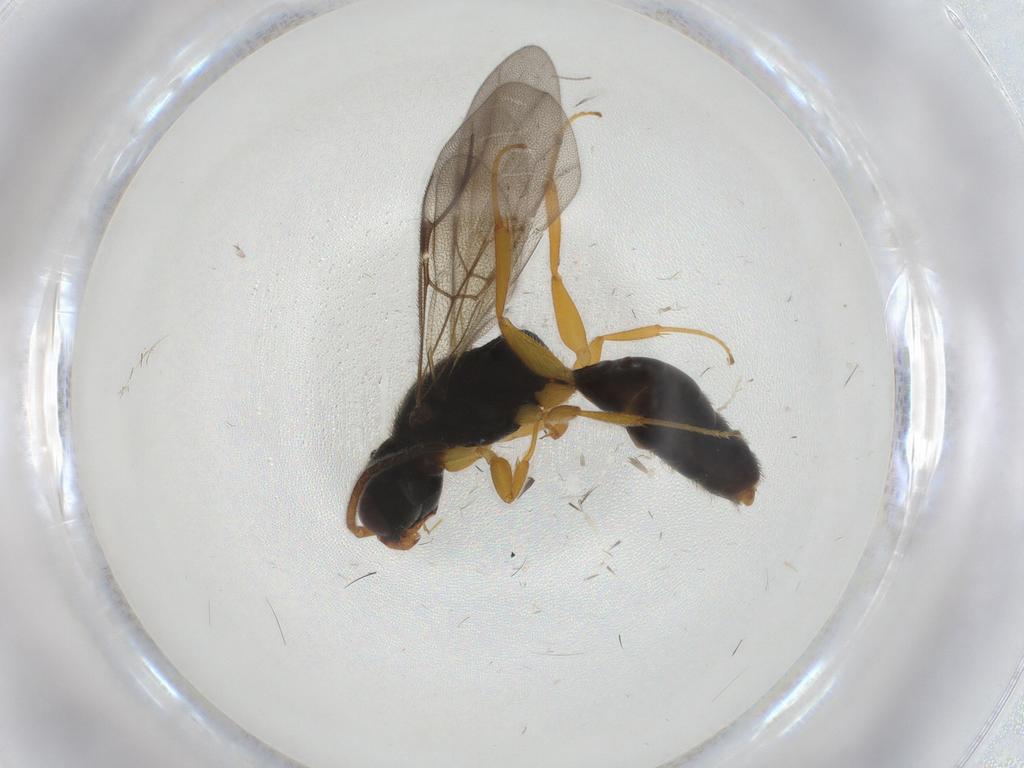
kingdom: Animalia
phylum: Arthropoda
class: Insecta
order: Hymenoptera
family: Bethylidae
